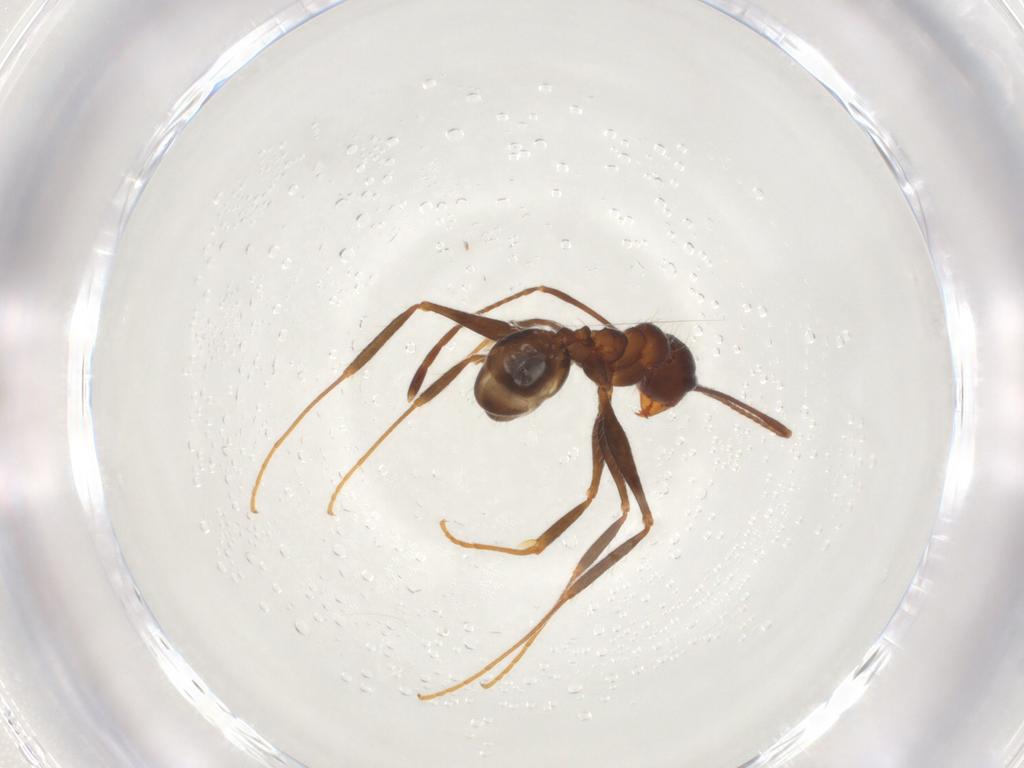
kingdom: Animalia
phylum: Arthropoda
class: Insecta
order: Hymenoptera
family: Formicidae
